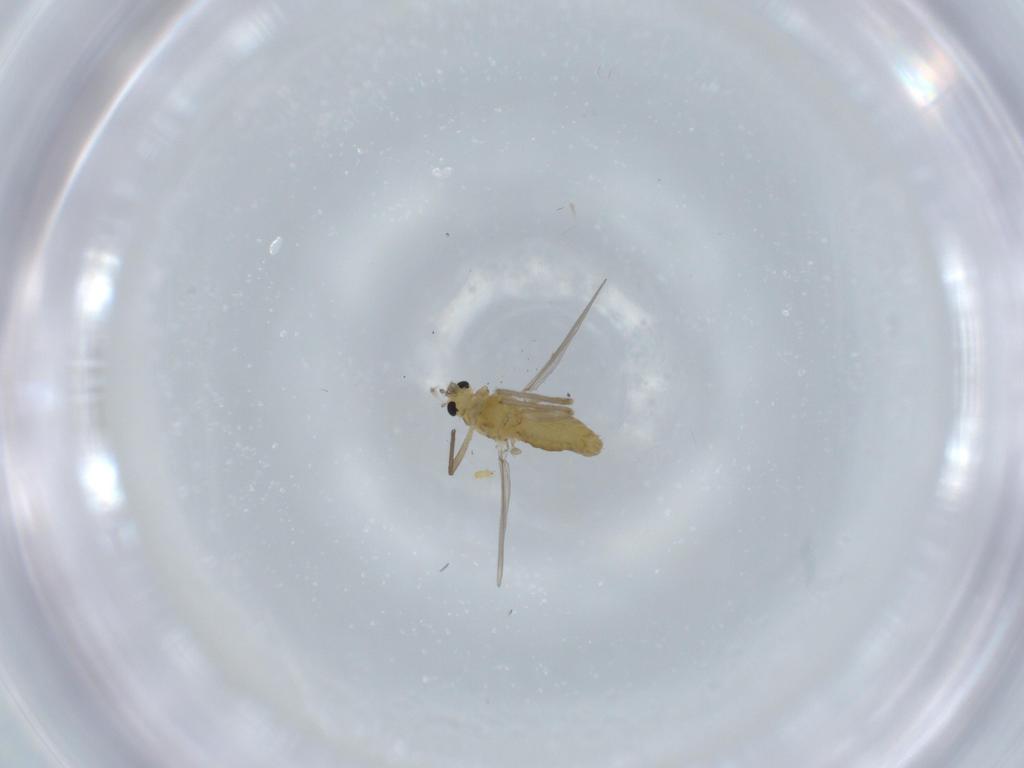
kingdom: Animalia
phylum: Arthropoda
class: Insecta
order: Diptera
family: Chironomidae
